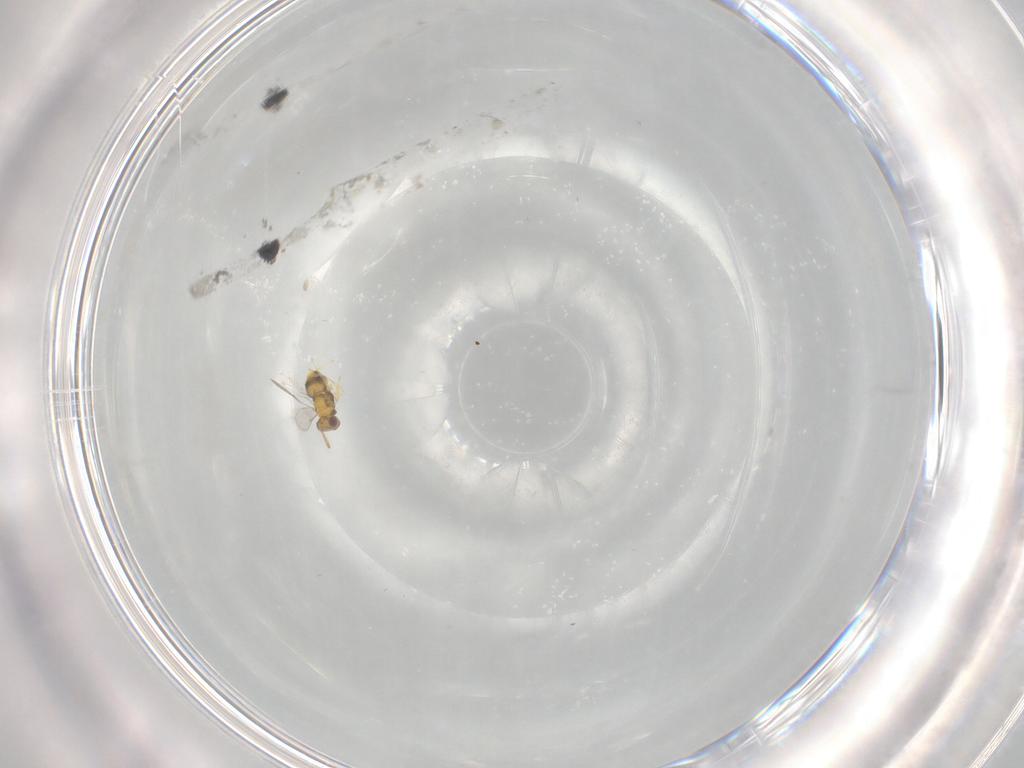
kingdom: Animalia
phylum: Arthropoda
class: Insecta
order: Hymenoptera
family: Aphelinidae
